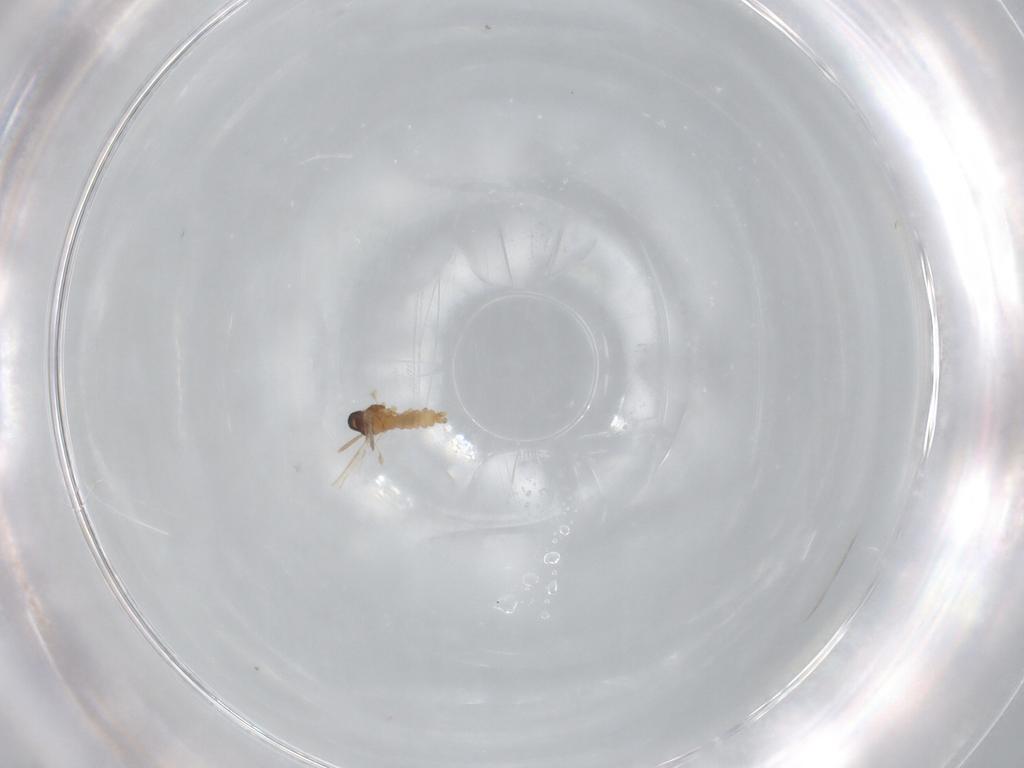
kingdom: Animalia
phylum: Arthropoda
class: Insecta
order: Diptera
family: Cecidomyiidae
